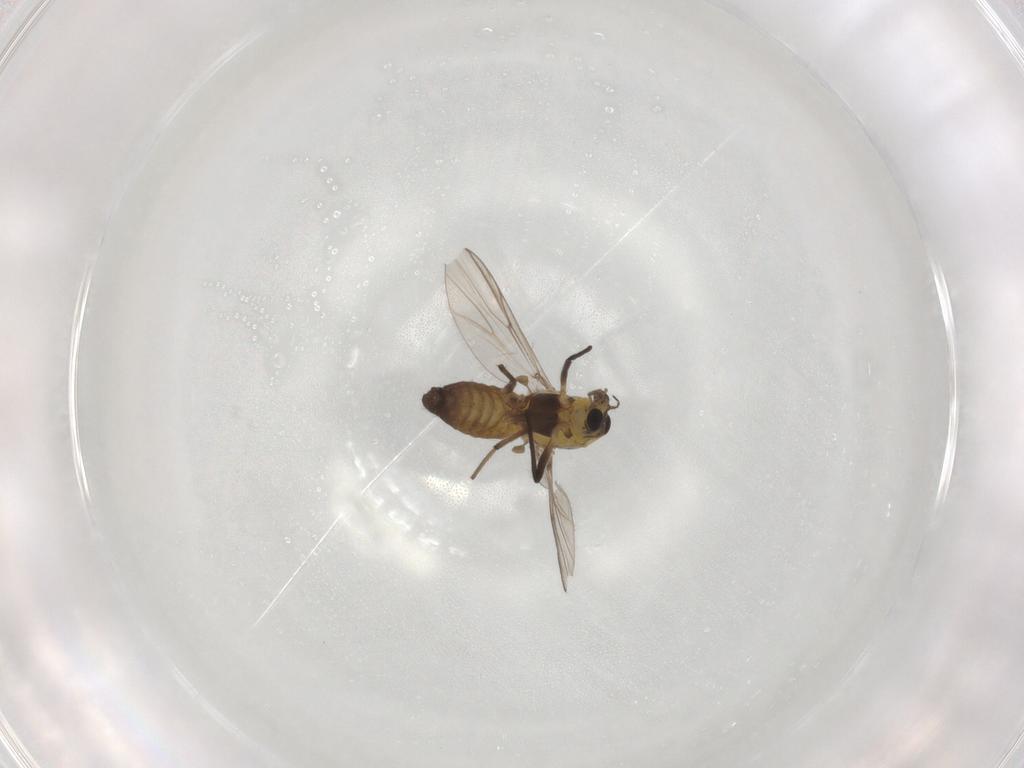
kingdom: Animalia
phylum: Arthropoda
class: Insecta
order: Diptera
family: Chironomidae
